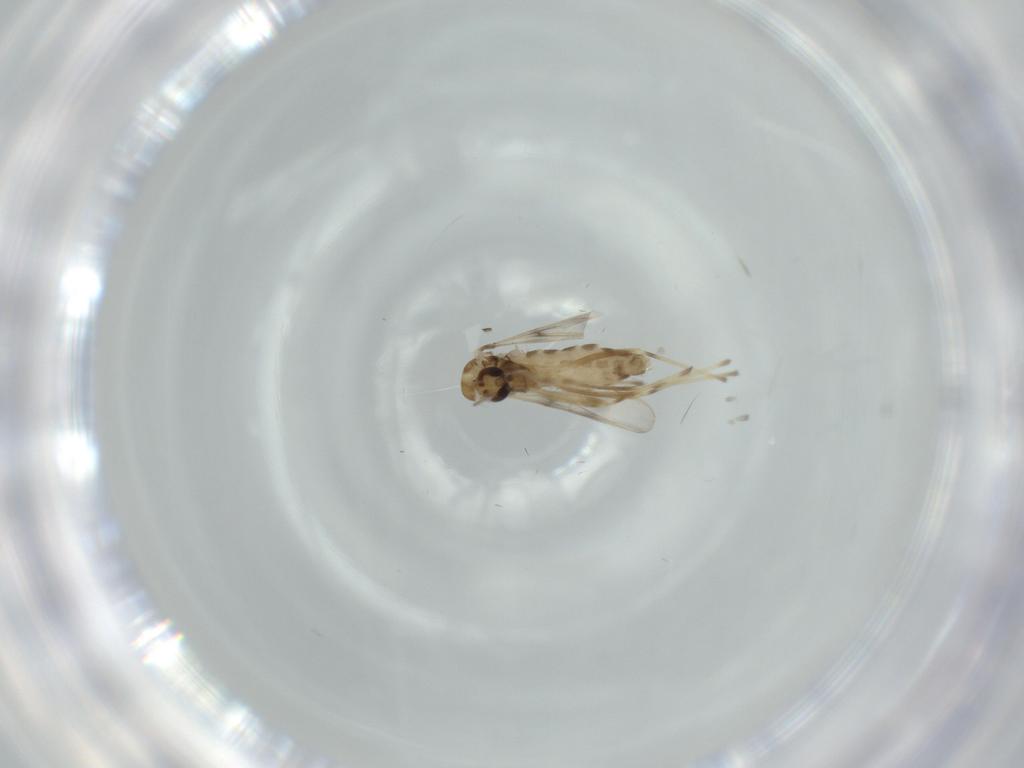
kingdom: Animalia
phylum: Arthropoda
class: Insecta
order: Diptera
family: Chironomidae
